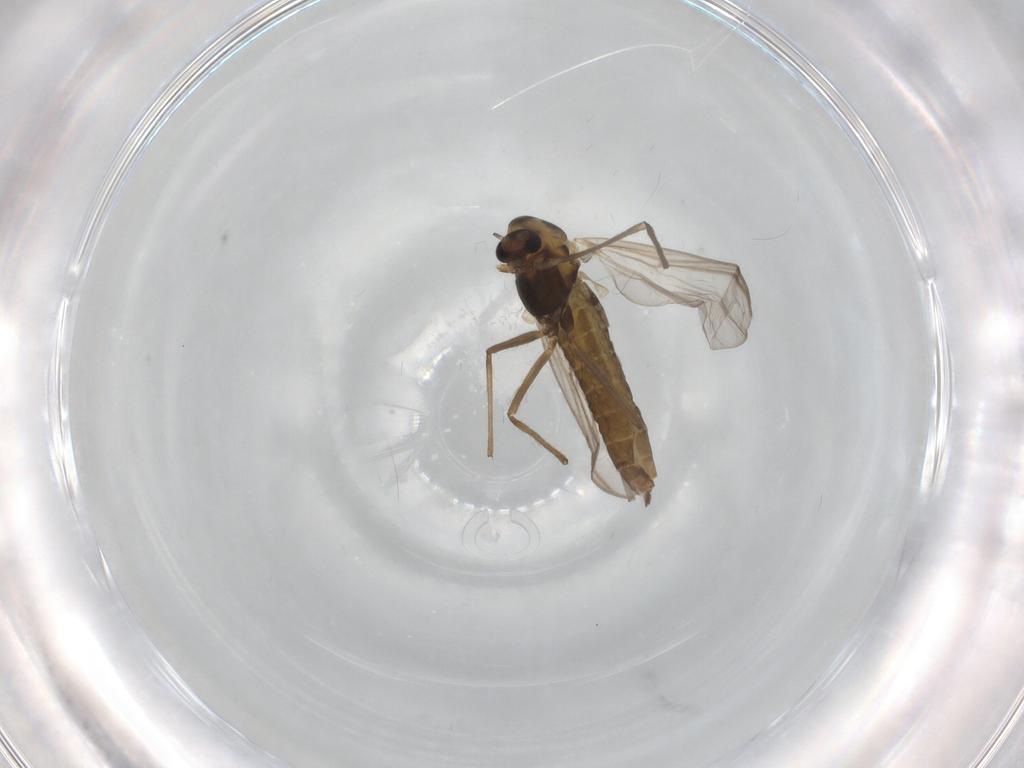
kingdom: Animalia
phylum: Arthropoda
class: Insecta
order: Diptera
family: Chironomidae
